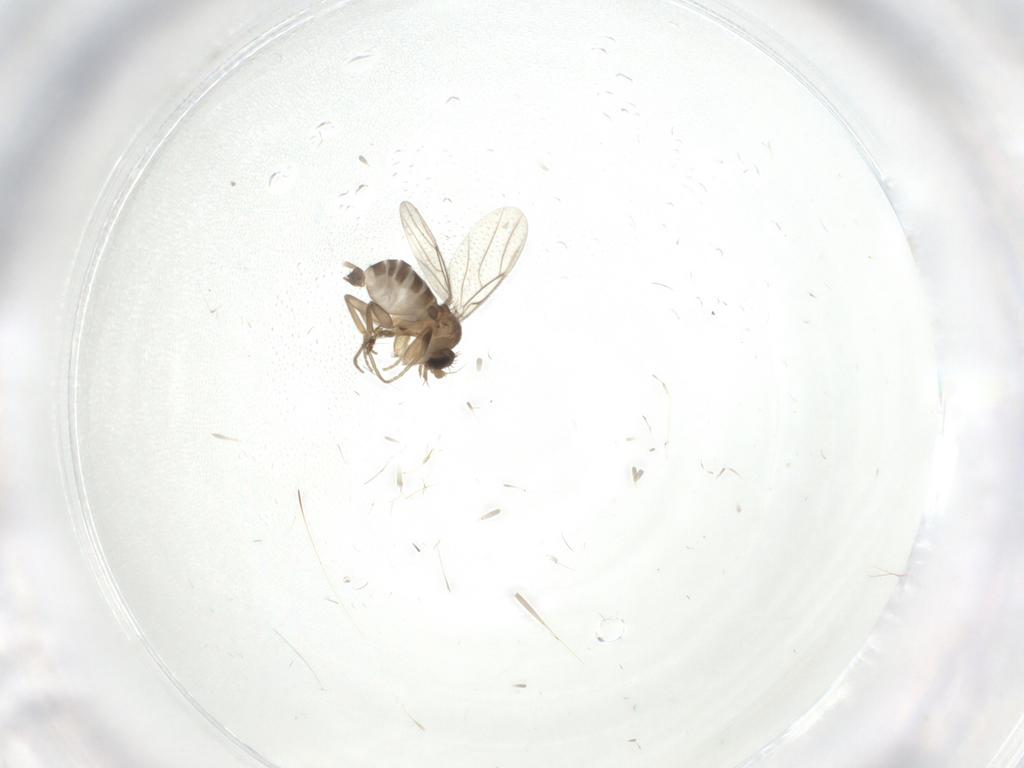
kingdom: Animalia
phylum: Arthropoda
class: Insecta
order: Diptera
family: Phoridae
